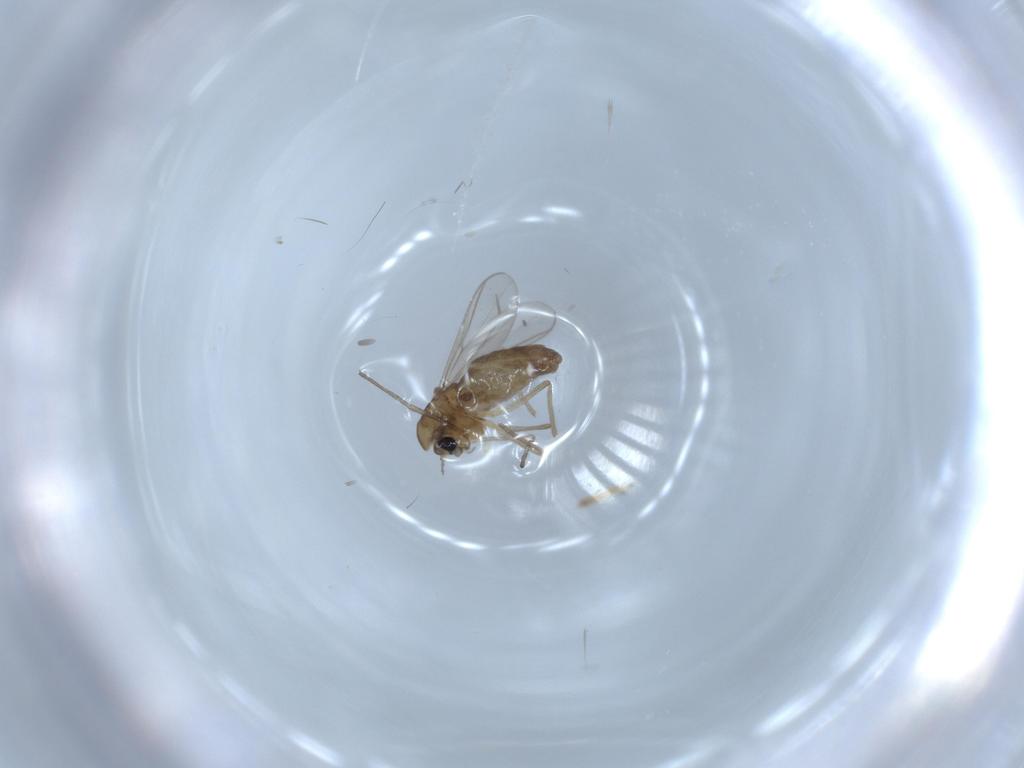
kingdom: Animalia
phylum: Arthropoda
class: Insecta
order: Diptera
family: Chironomidae
